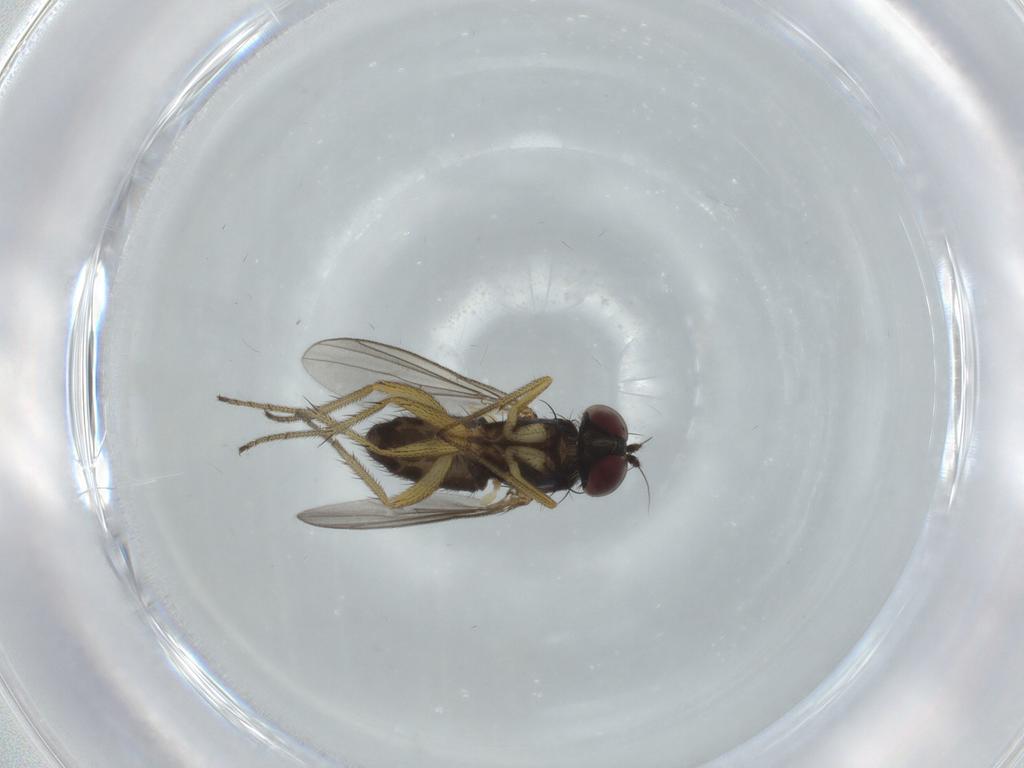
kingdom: Animalia
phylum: Arthropoda
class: Insecta
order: Diptera
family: Dolichopodidae
